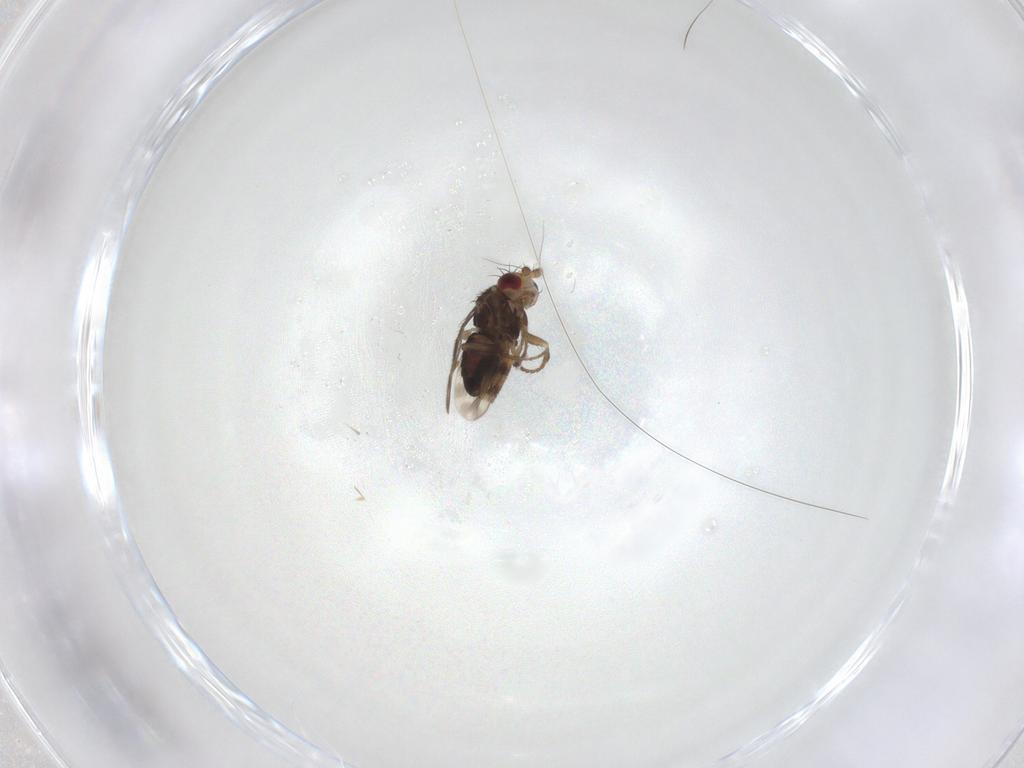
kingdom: Animalia
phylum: Arthropoda
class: Insecta
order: Diptera
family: Sphaeroceridae
